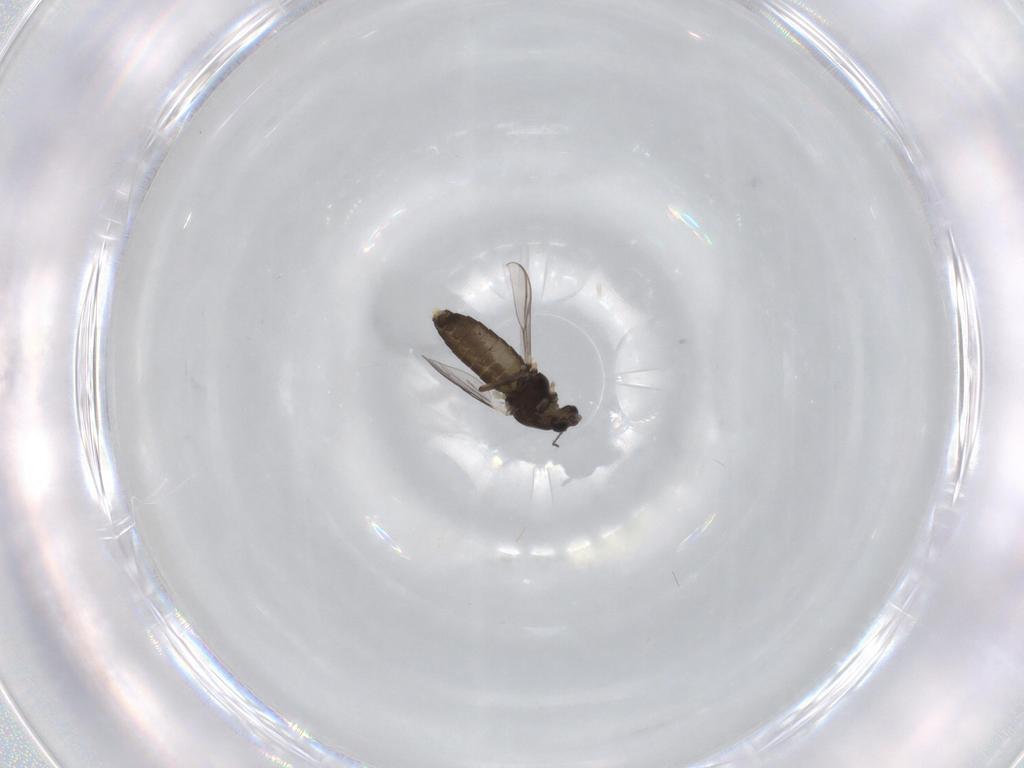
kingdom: Animalia
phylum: Arthropoda
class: Insecta
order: Diptera
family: Chironomidae
